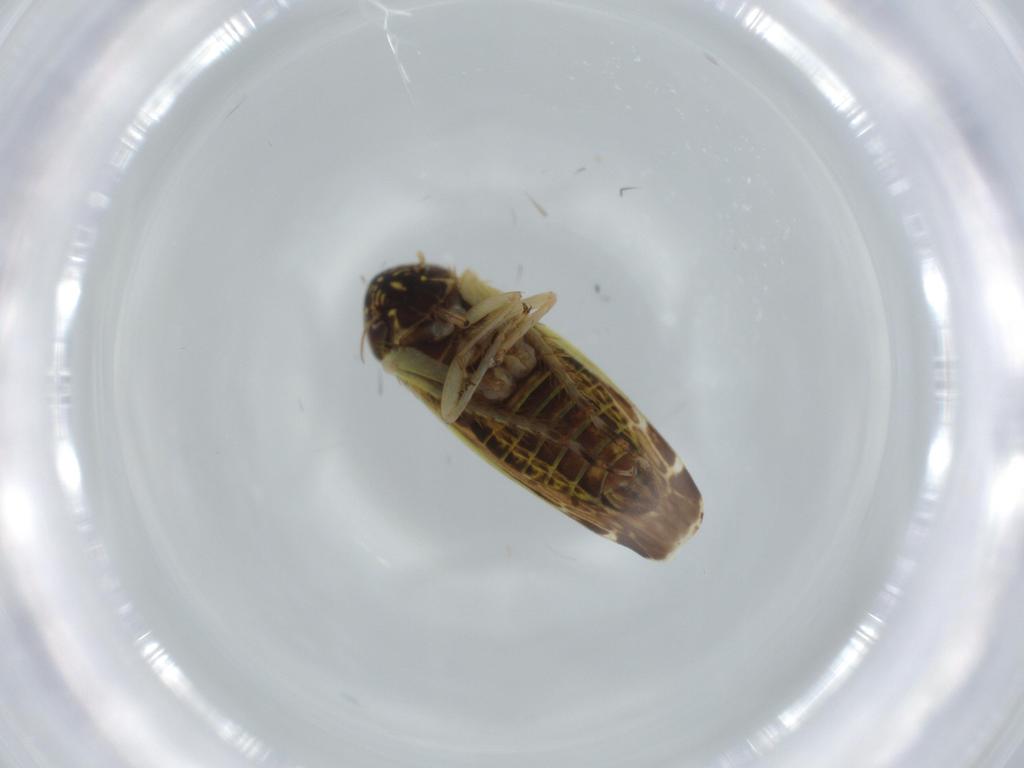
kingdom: Animalia
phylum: Arthropoda
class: Insecta
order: Hemiptera
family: Cicadellidae
